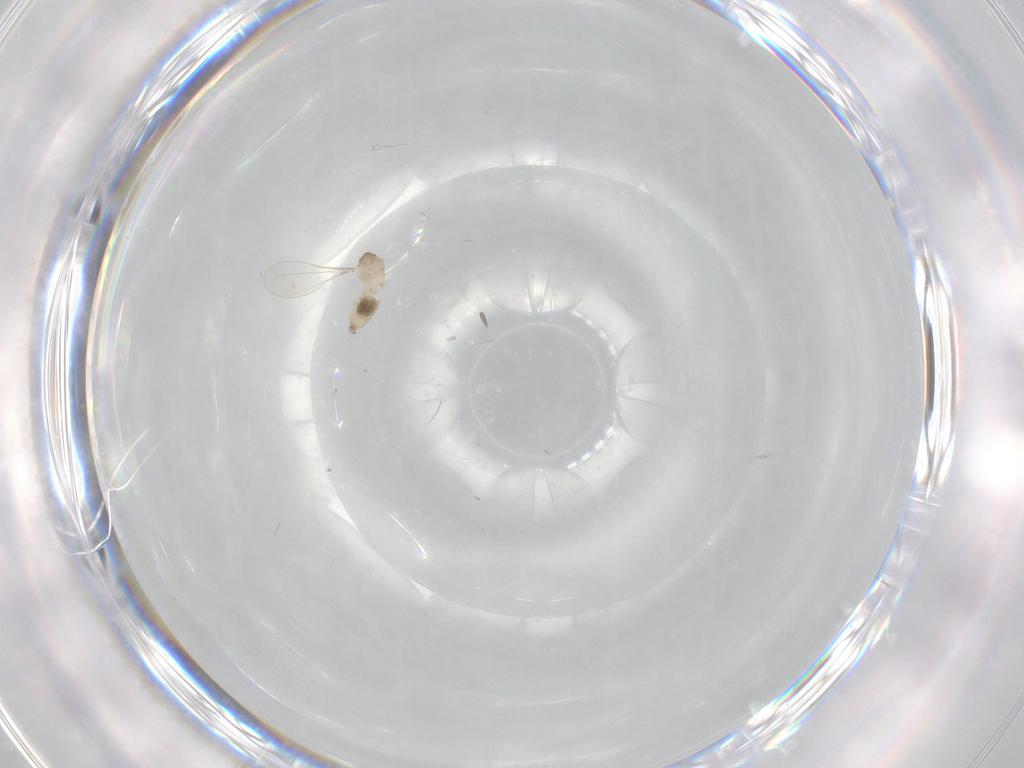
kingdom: Animalia
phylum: Arthropoda
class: Insecta
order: Diptera
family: Cecidomyiidae
